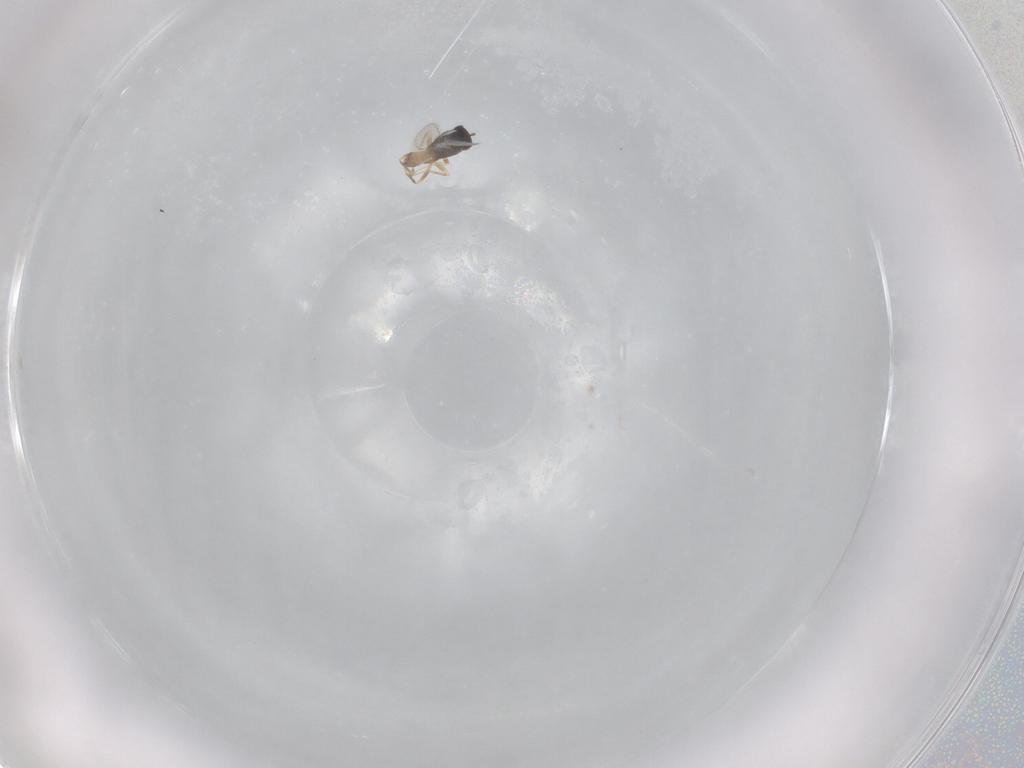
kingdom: Animalia
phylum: Arthropoda
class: Insecta
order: Hymenoptera
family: Mymaridae
